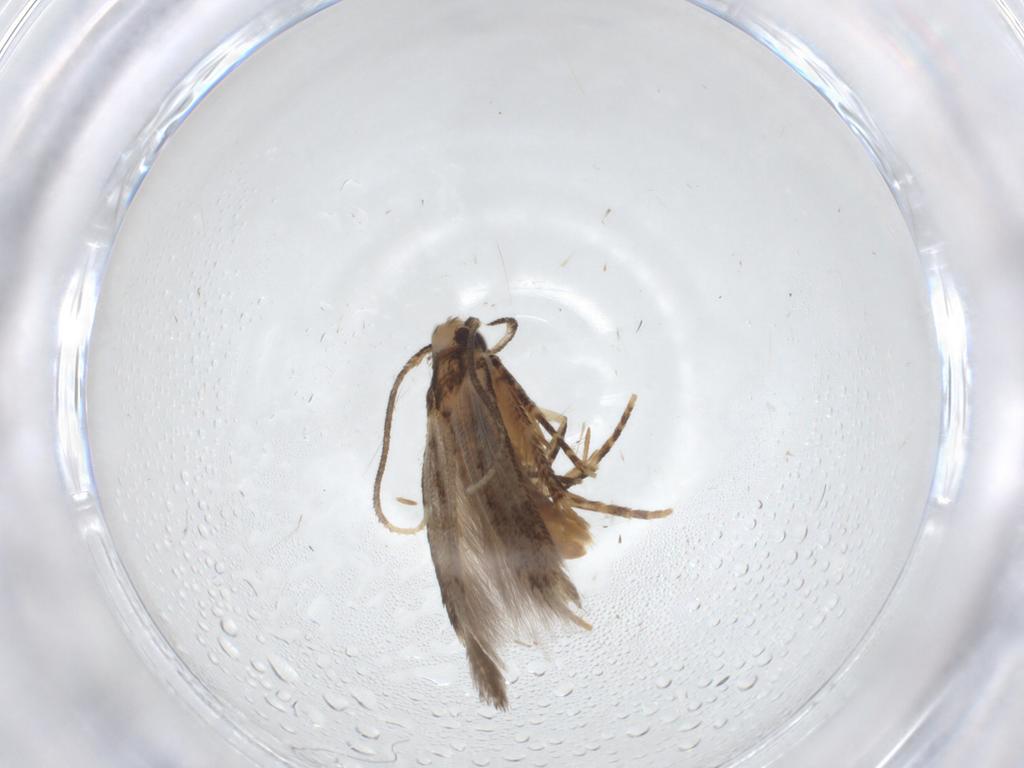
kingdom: Animalia
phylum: Arthropoda
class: Insecta
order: Lepidoptera
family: Cosmopterigidae
